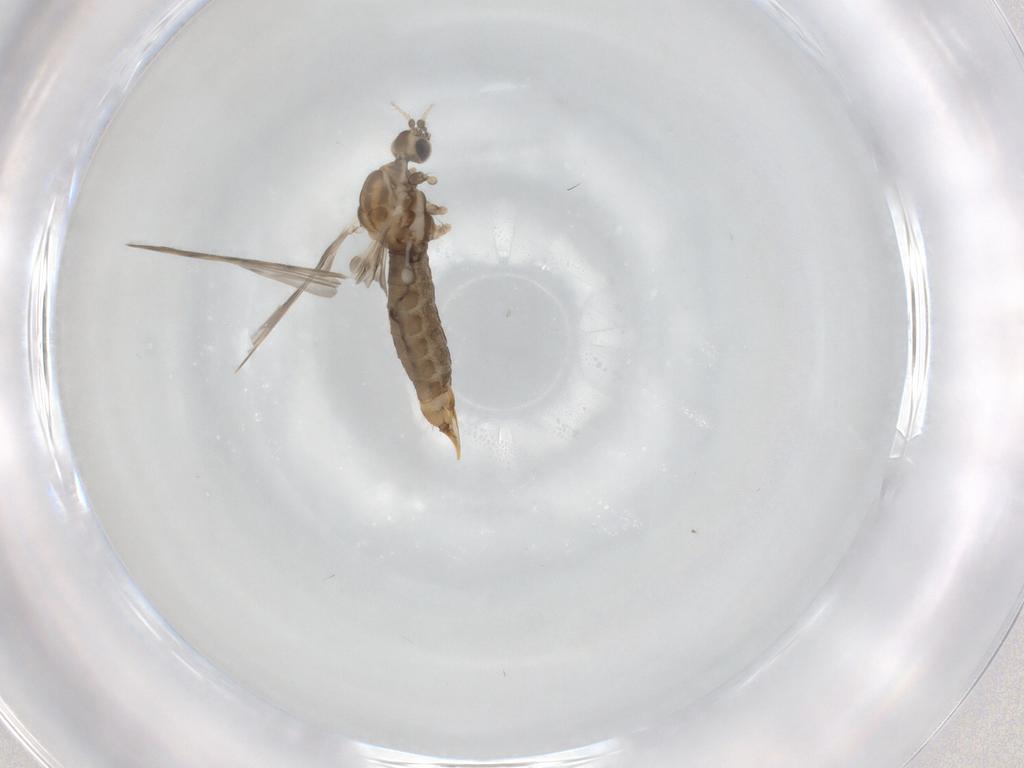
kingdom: Animalia
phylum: Arthropoda
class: Insecta
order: Diptera
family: Limoniidae
